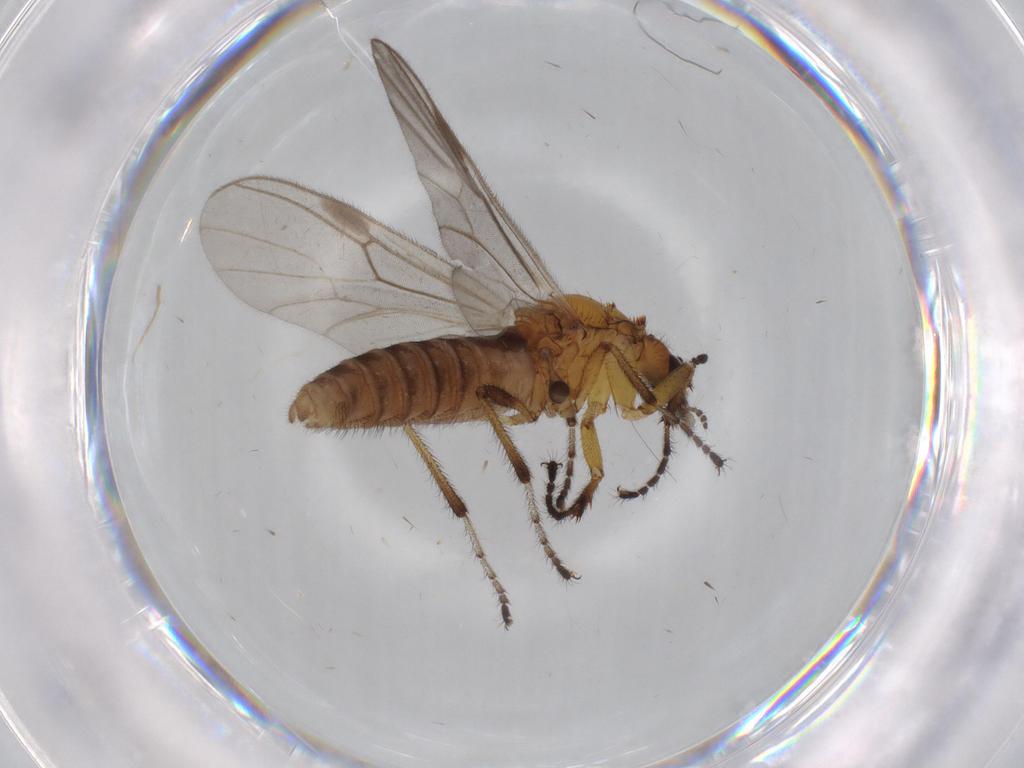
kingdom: Animalia
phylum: Arthropoda
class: Insecta
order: Diptera
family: Bibionidae
